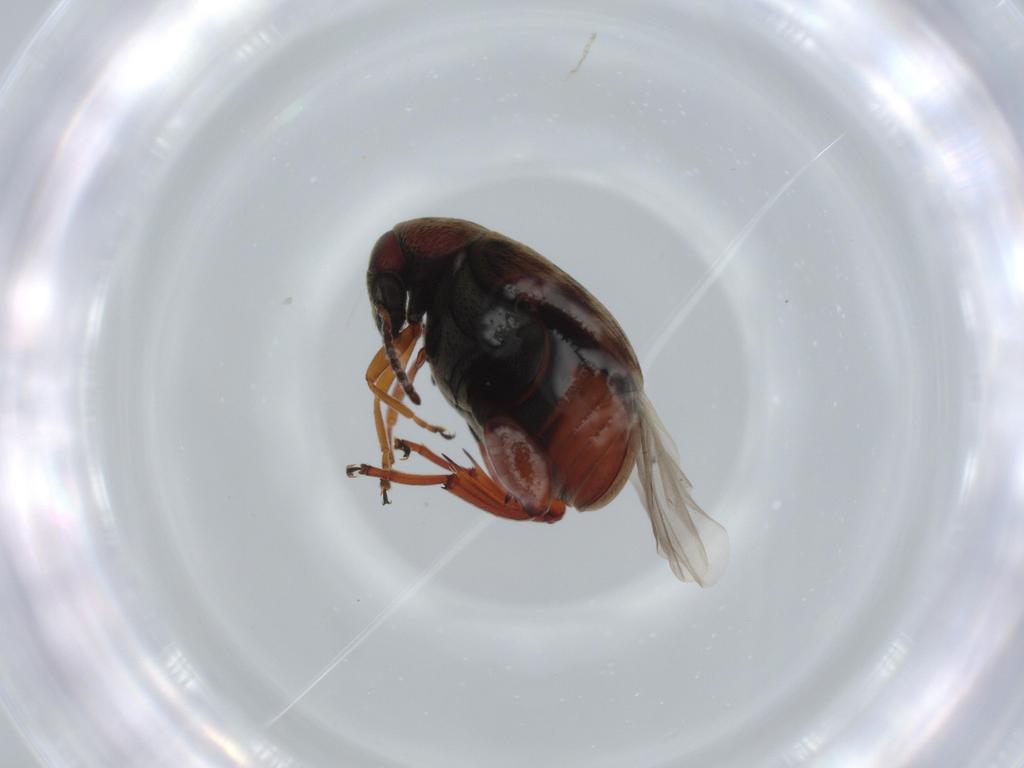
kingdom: Animalia
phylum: Arthropoda
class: Insecta
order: Coleoptera
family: Chrysomelidae
